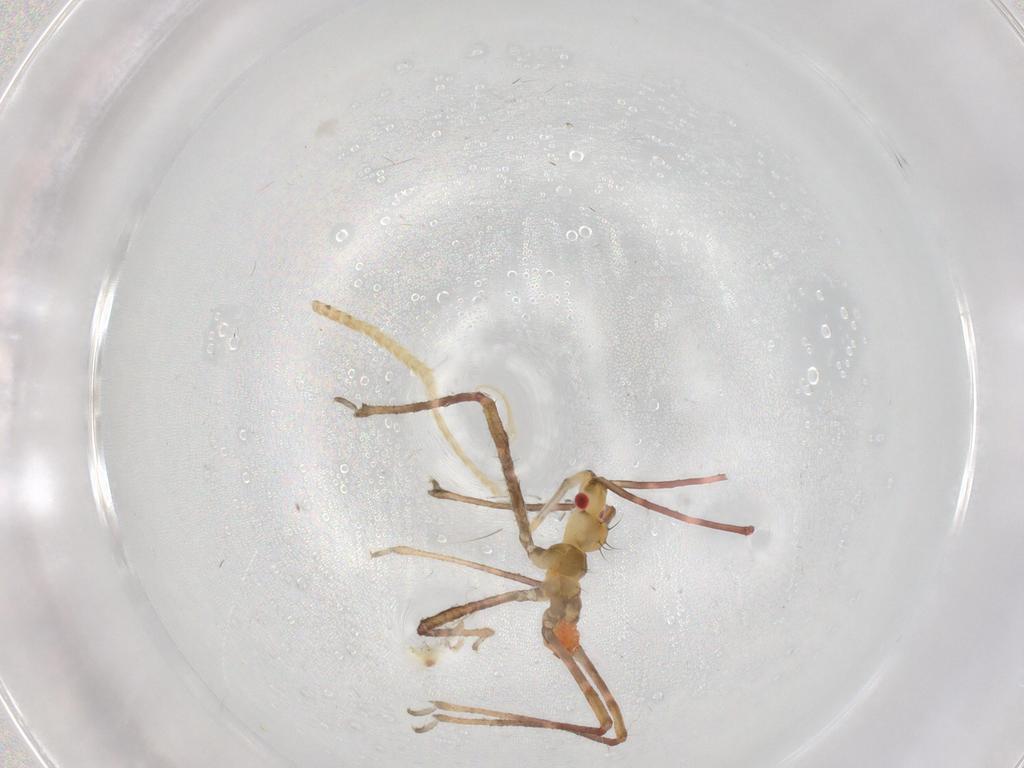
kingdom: Animalia
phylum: Arthropoda
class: Insecta
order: Hemiptera
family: Reduviidae
